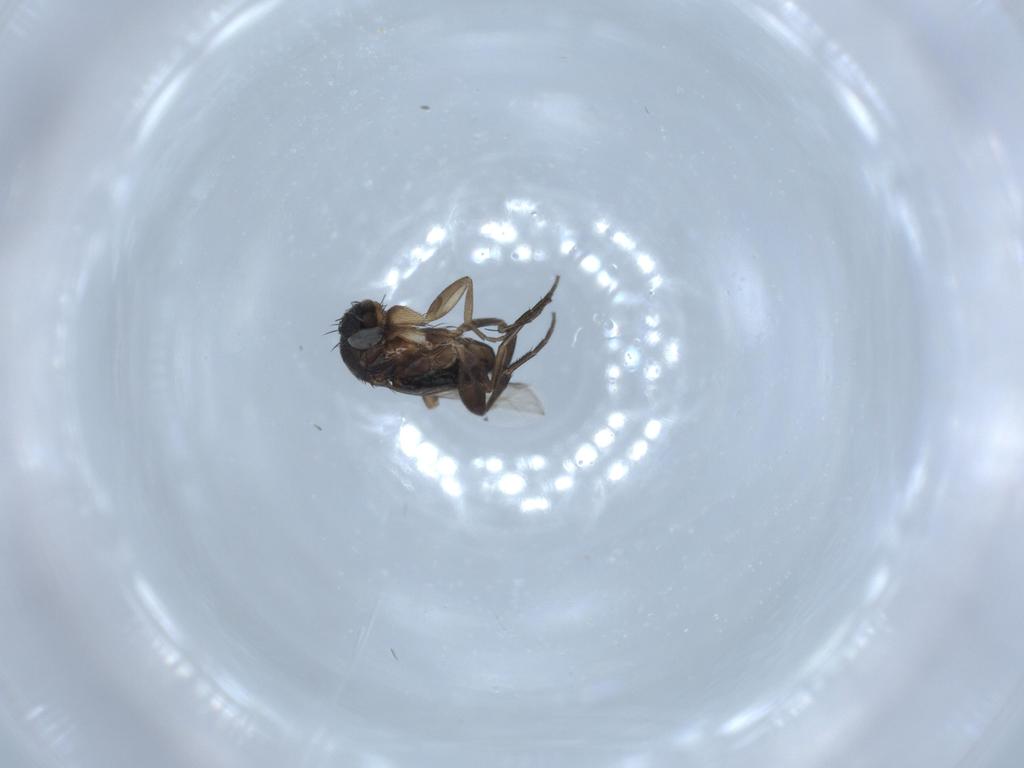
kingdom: Animalia
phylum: Arthropoda
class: Insecta
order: Diptera
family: Phoridae
